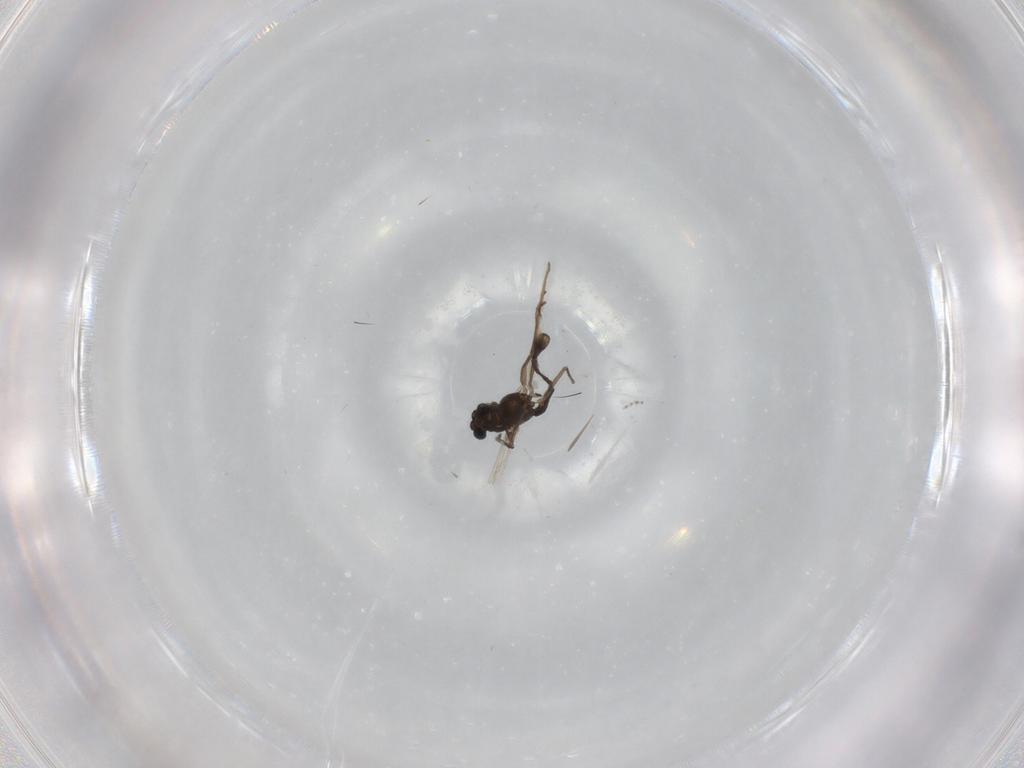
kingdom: Animalia
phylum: Arthropoda
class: Insecta
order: Diptera
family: Chironomidae
